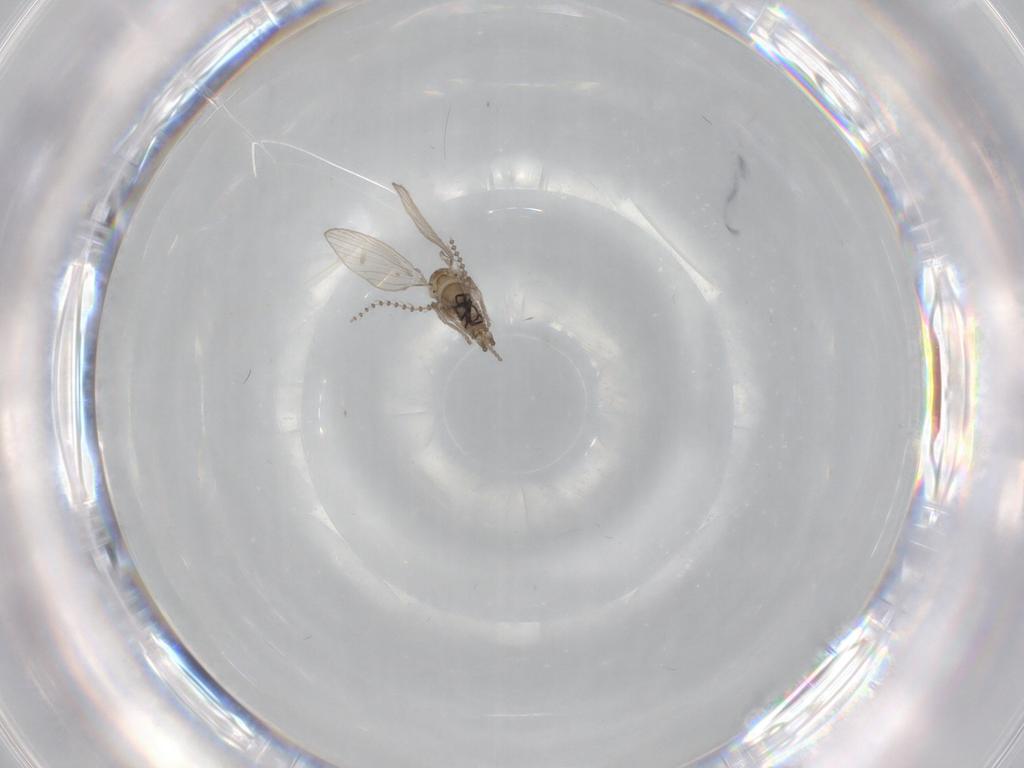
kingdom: Animalia
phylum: Arthropoda
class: Insecta
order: Diptera
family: Psychodidae
